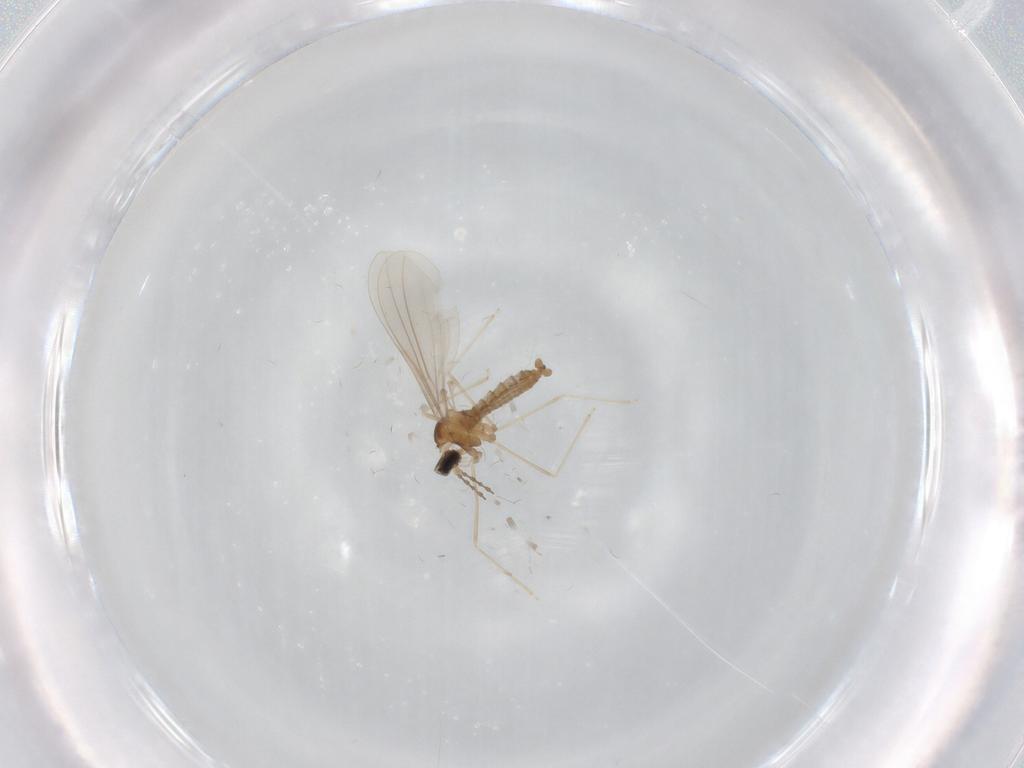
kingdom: Animalia
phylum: Arthropoda
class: Insecta
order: Diptera
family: Cecidomyiidae
